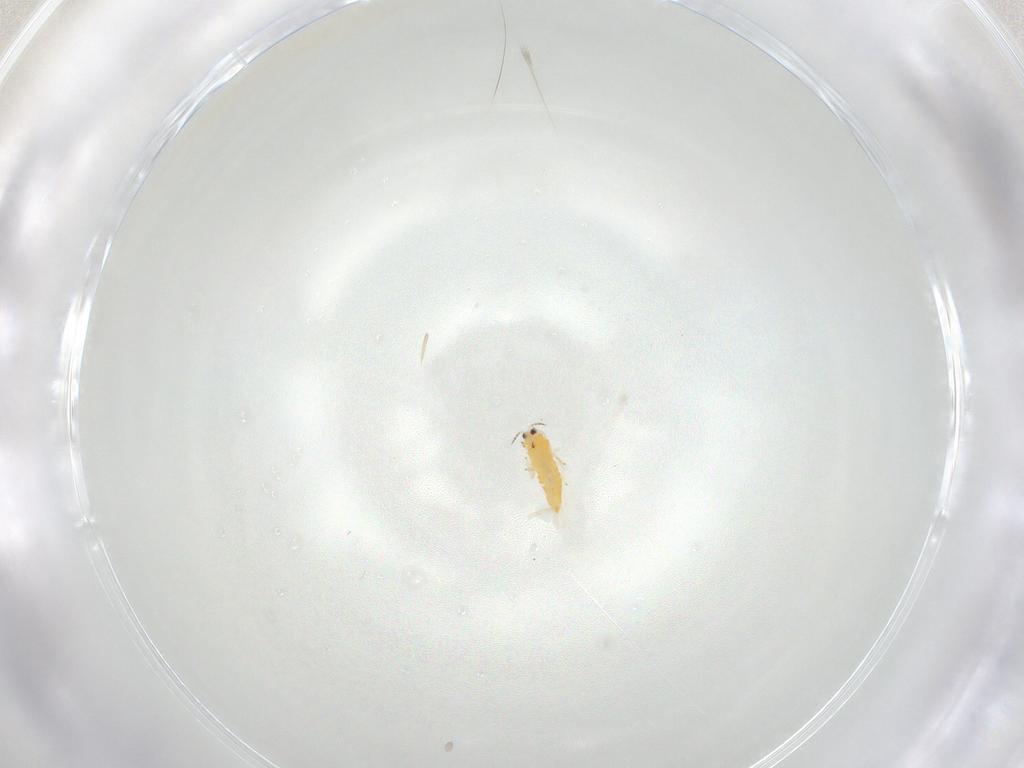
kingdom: Animalia
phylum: Arthropoda
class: Insecta
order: Thysanoptera
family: Thripidae
